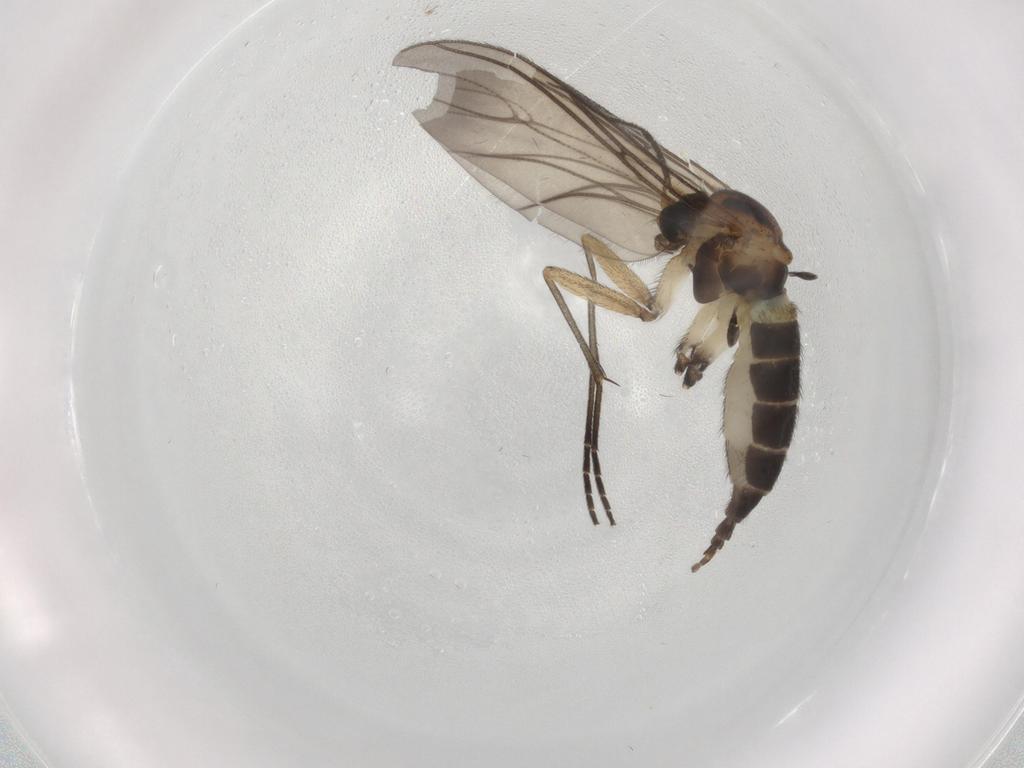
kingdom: Animalia
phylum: Arthropoda
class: Insecta
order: Diptera
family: Sciaridae
